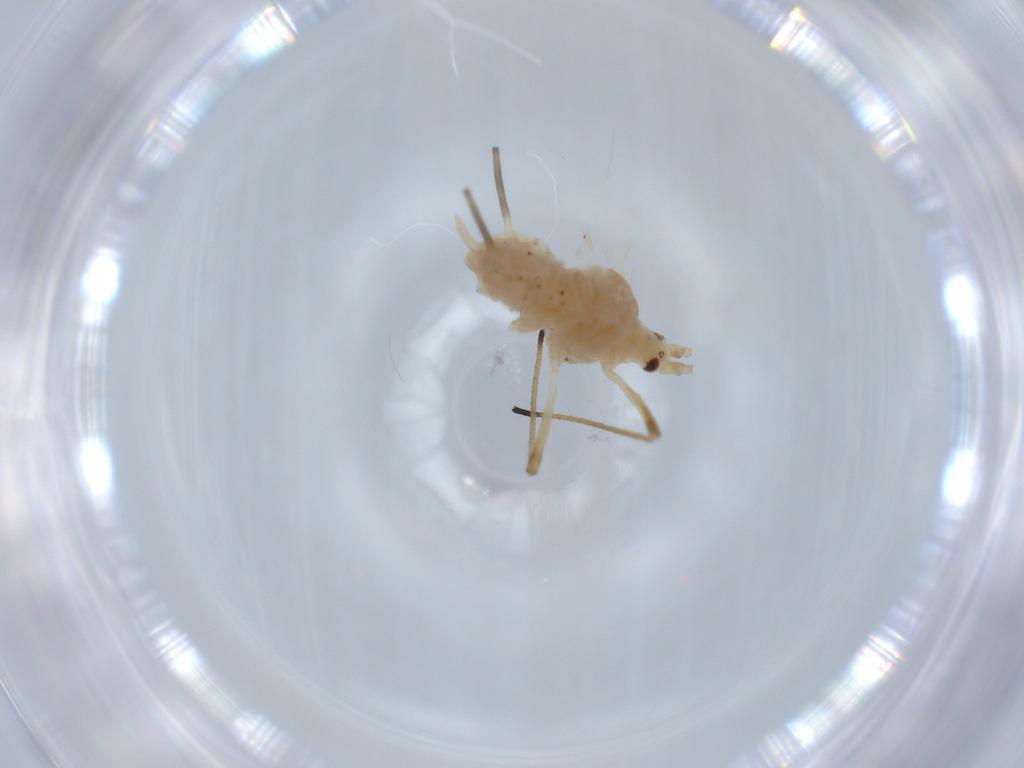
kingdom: Animalia
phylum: Arthropoda
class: Insecta
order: Hemiptera
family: Aphididae
